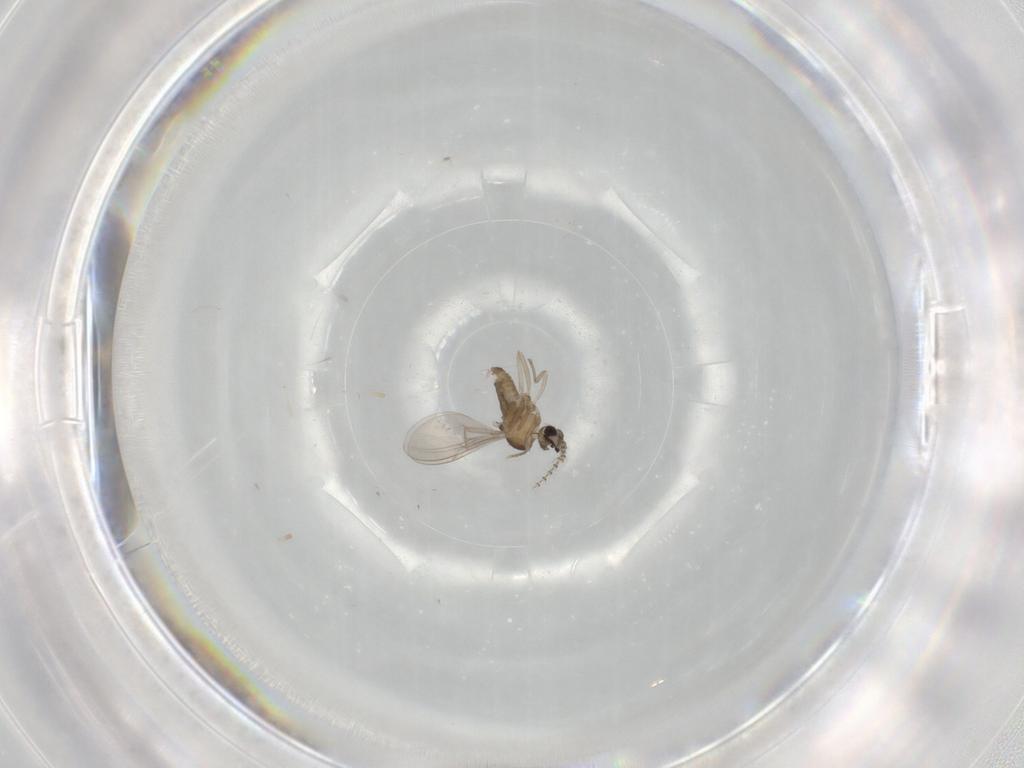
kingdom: Animalia
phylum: Arthropoda
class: Insecta
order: Diptera
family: Cecidomyiidae
